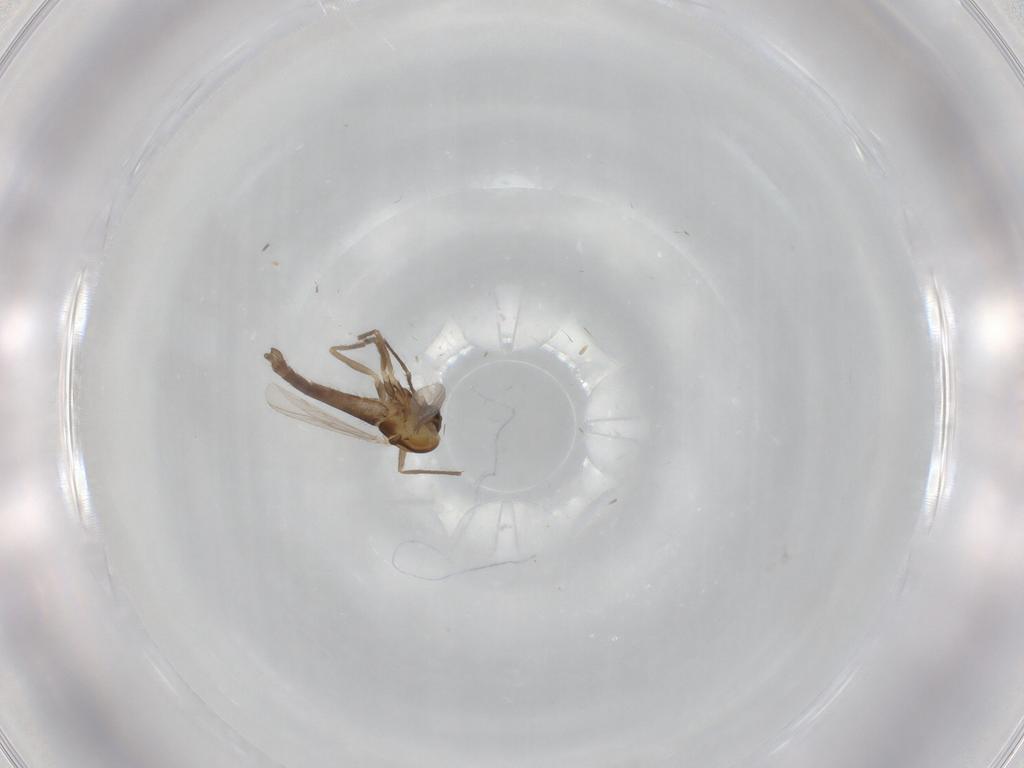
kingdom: Animalia
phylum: Arthropoda
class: Insecta
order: Diptera
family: Chironomidae
